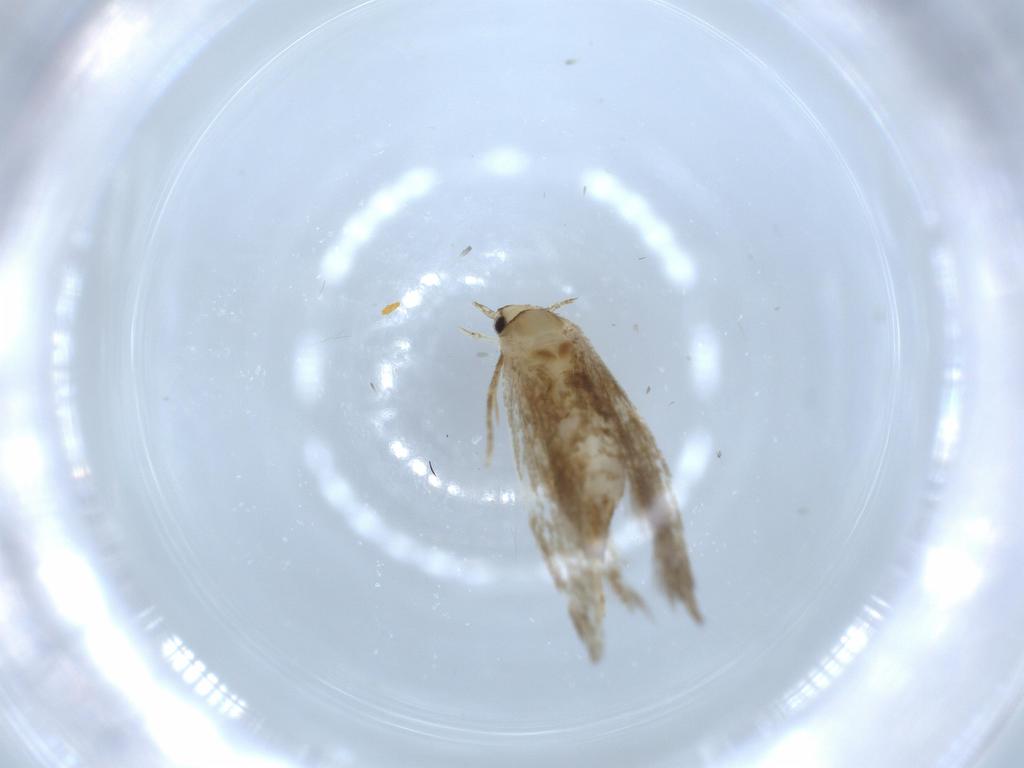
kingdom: Animalia
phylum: Arthropoda
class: Insecta
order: Lepidoptera
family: Tineidae
